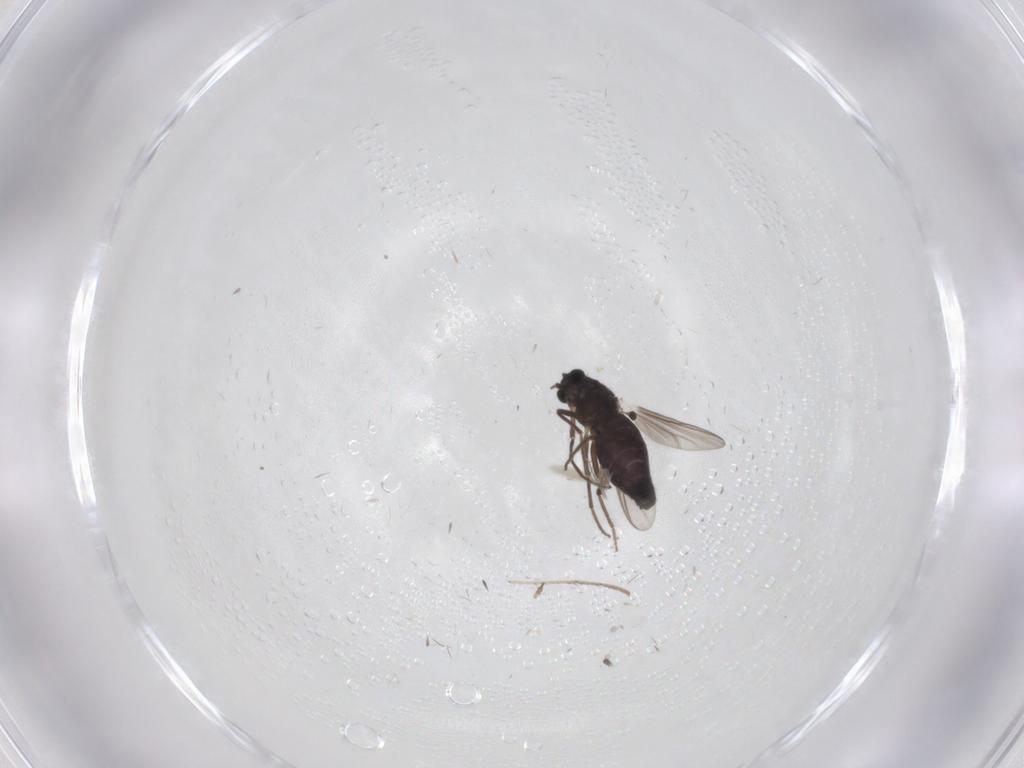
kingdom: Animalia
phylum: Arthropoda
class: Insecta
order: Diptera
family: Chironomidae
